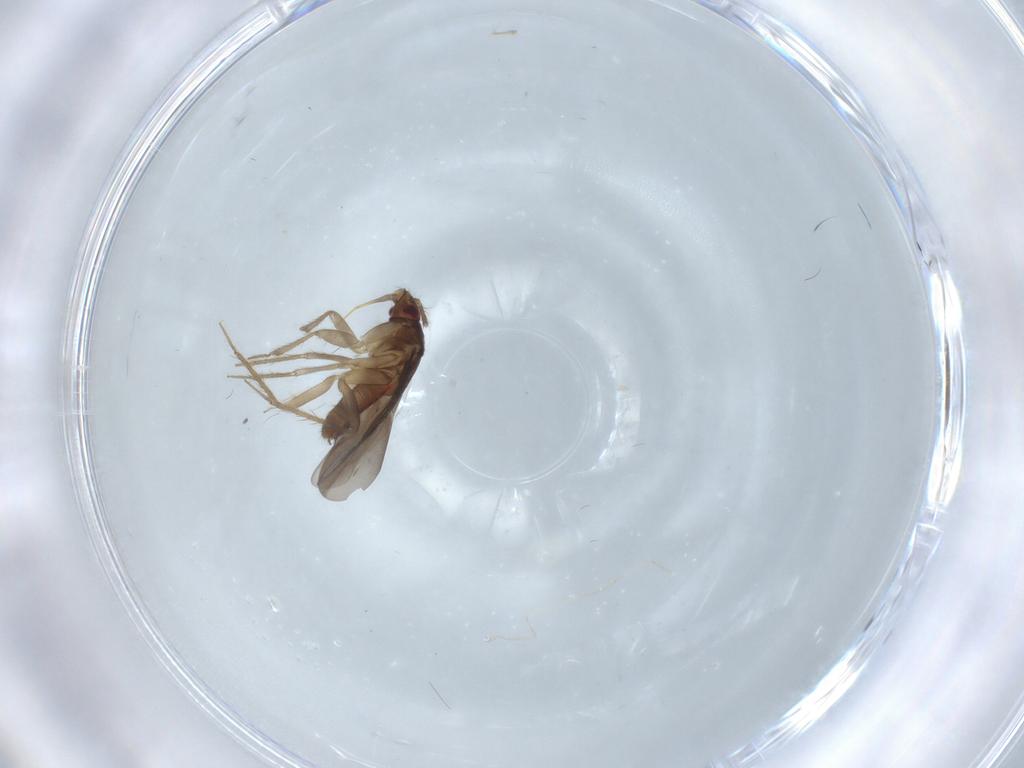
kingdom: Animalia
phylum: Arthropoda
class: Insecta
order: Hemiptera
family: Ceratocombidae
